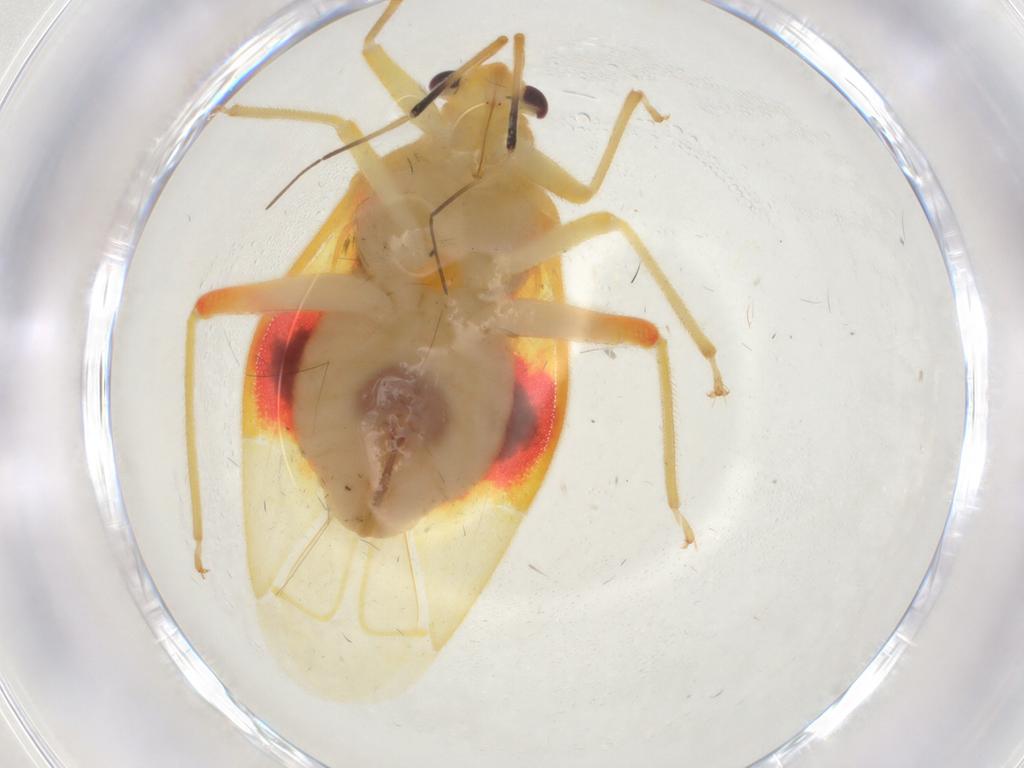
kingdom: Animalia
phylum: Arthropoda
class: Insecta
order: Hemiptera
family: Miridae
